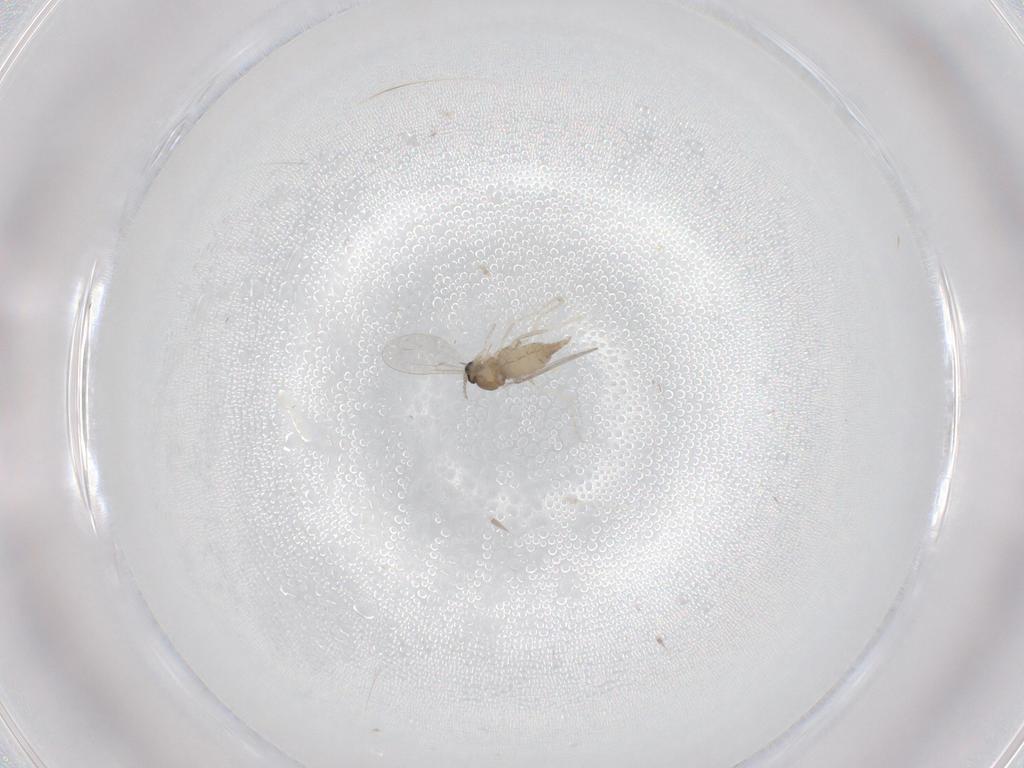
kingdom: Animalia
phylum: Arthropoda
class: Insecta
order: Diptera
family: Cecidomyiidae
